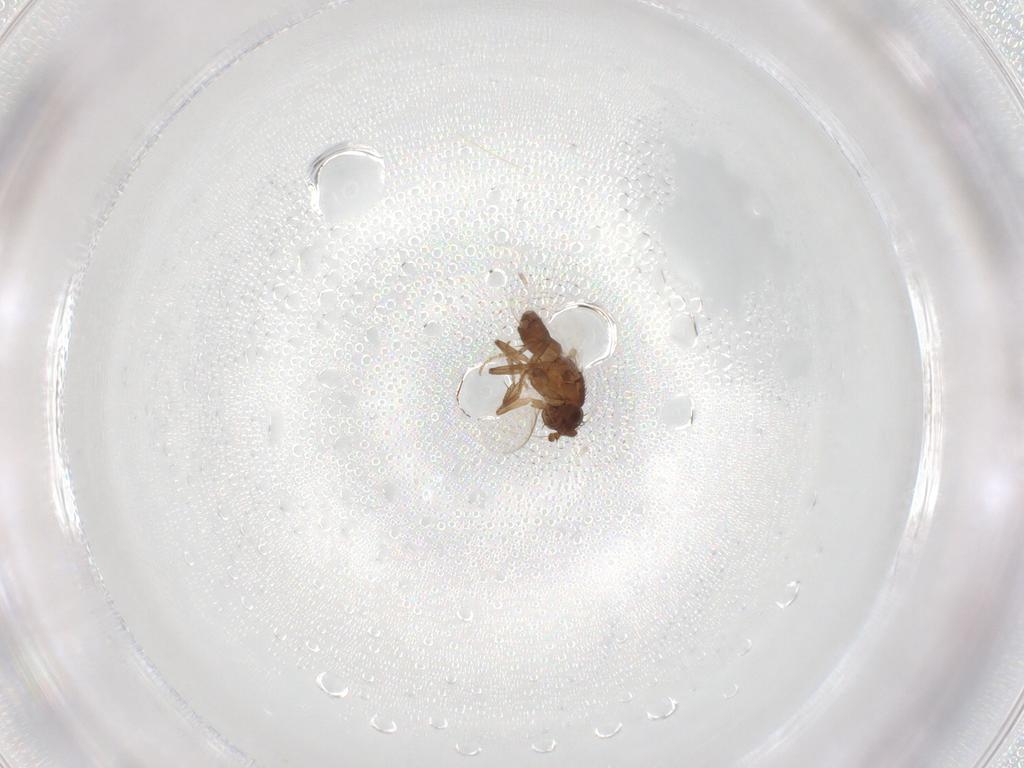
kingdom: Animalia
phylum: Arthropoda
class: Insecta
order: Diptera
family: Sphaeroceridae
